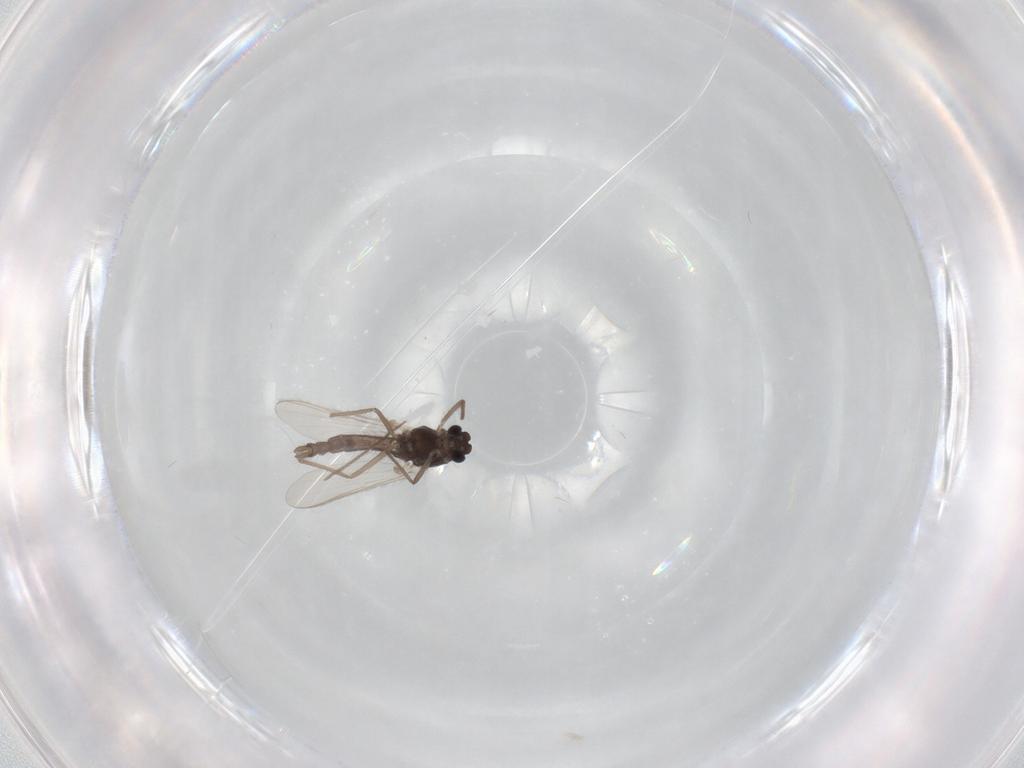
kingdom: Animalia
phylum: Arthropoda
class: Insecta
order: Diptera
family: Chironomidae
